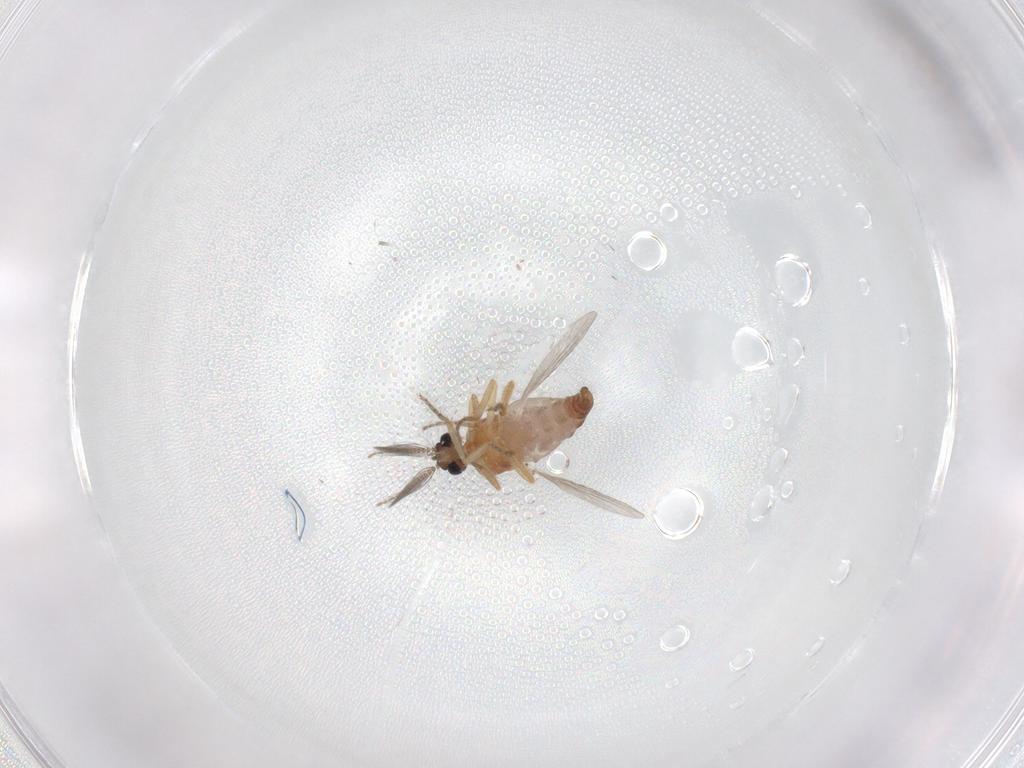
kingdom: Animalia
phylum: Arthropoda
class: Insecta
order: Diptera
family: Ceratopogonidae
